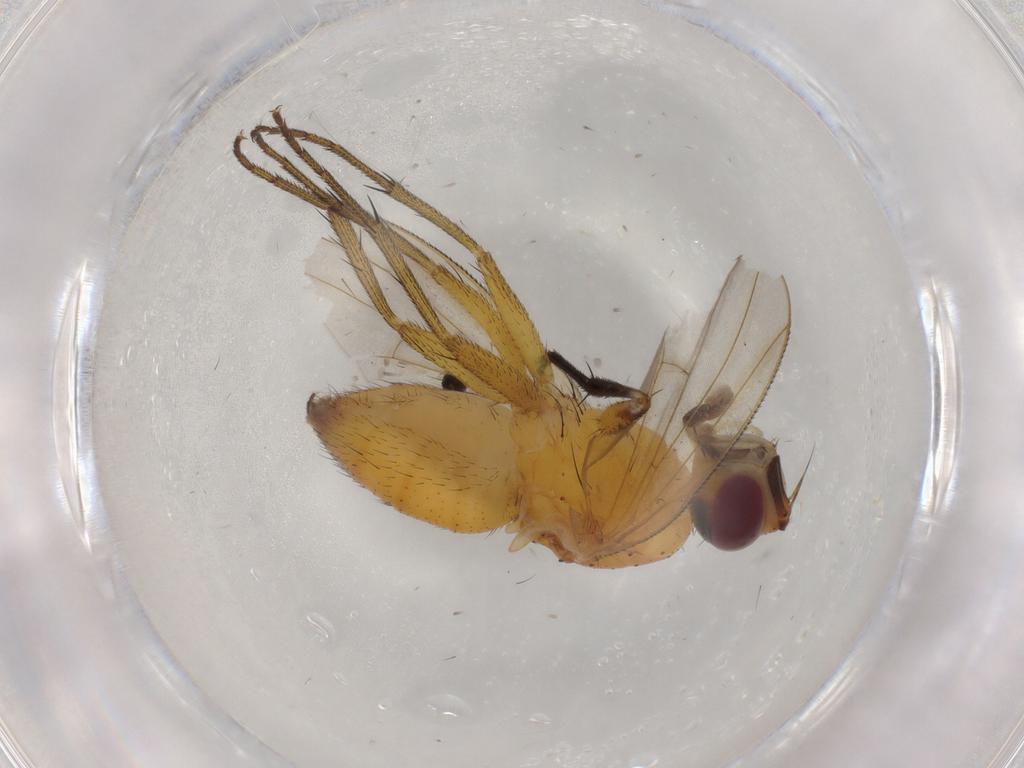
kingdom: Animalia
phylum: Arthropoda
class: Insecta
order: Hymenoptera
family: Scelionidae
